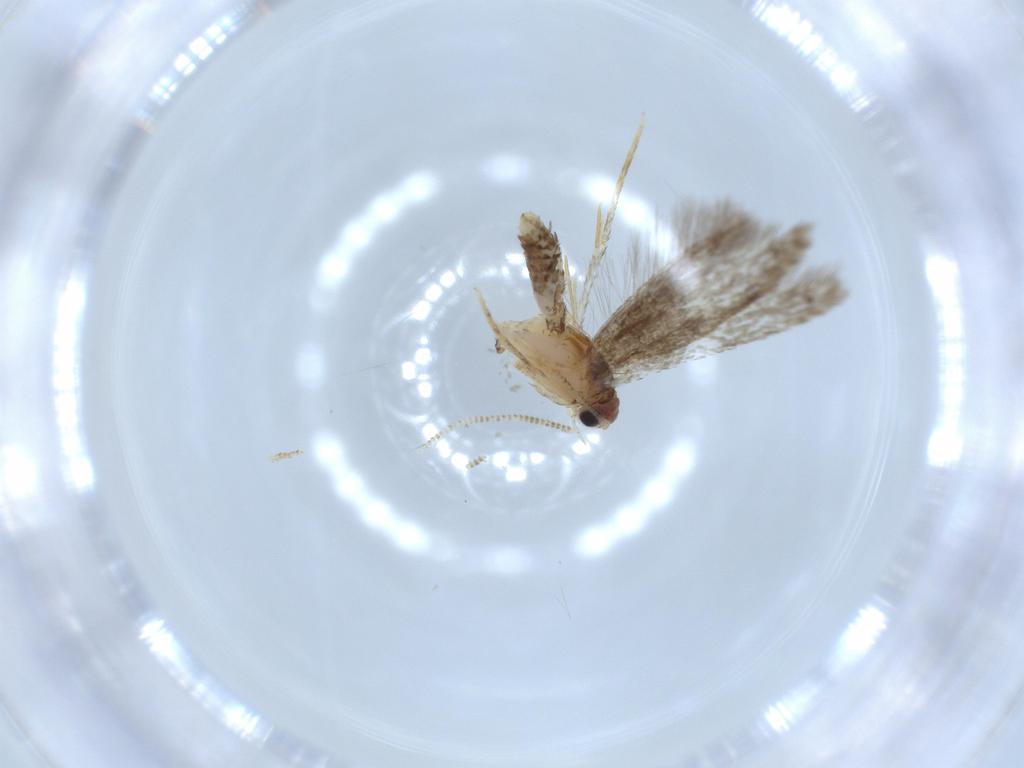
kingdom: Animalia
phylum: Arthropoda
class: Insecta
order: Lepidoptera
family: Tineidae
